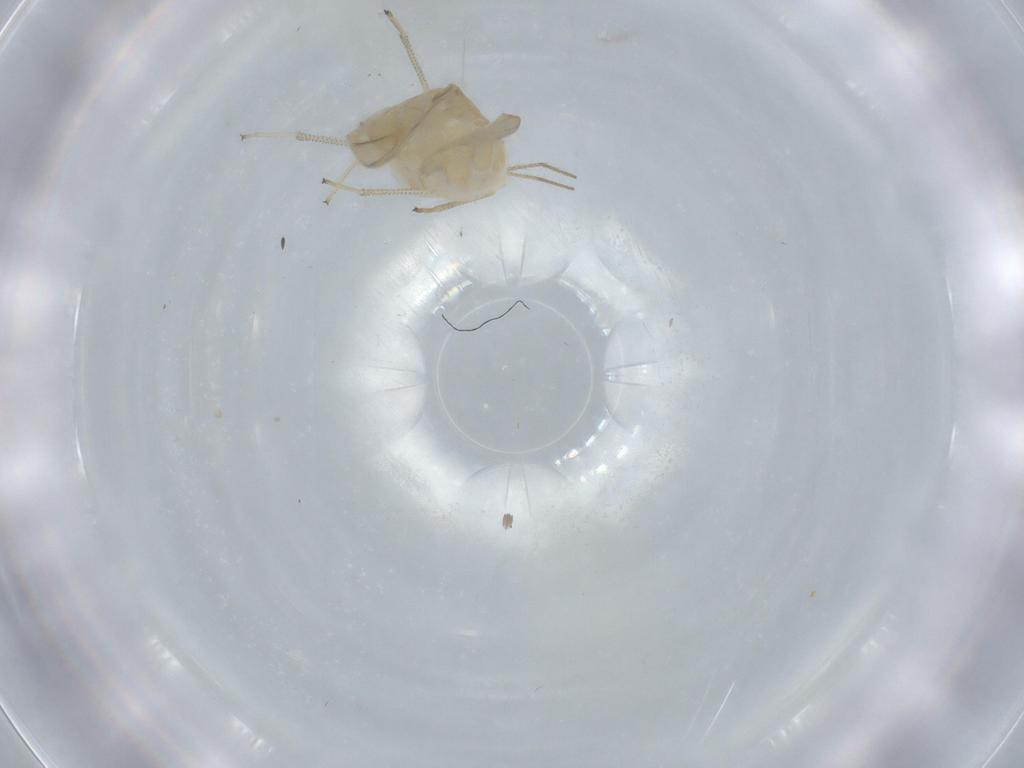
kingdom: Animalia
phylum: Arthropoda
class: Insecta
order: Psocodea
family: Caeciliusidae
